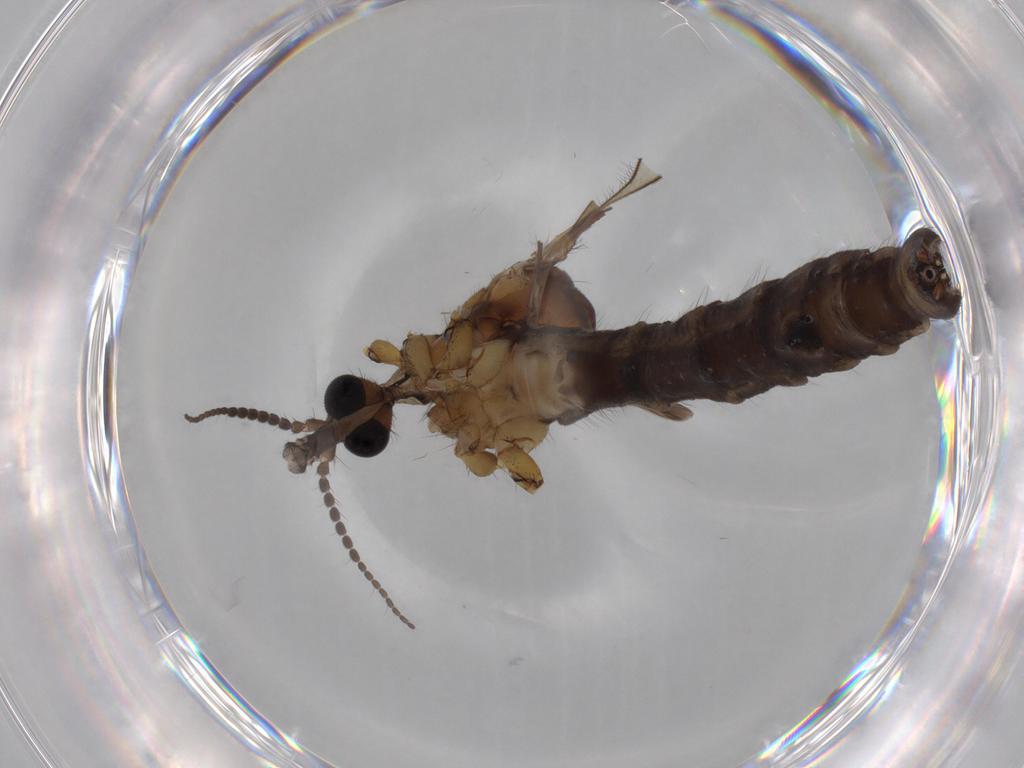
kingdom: Animalia
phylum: Arthropoda
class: Insecta
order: Diptera
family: Limoniidae
